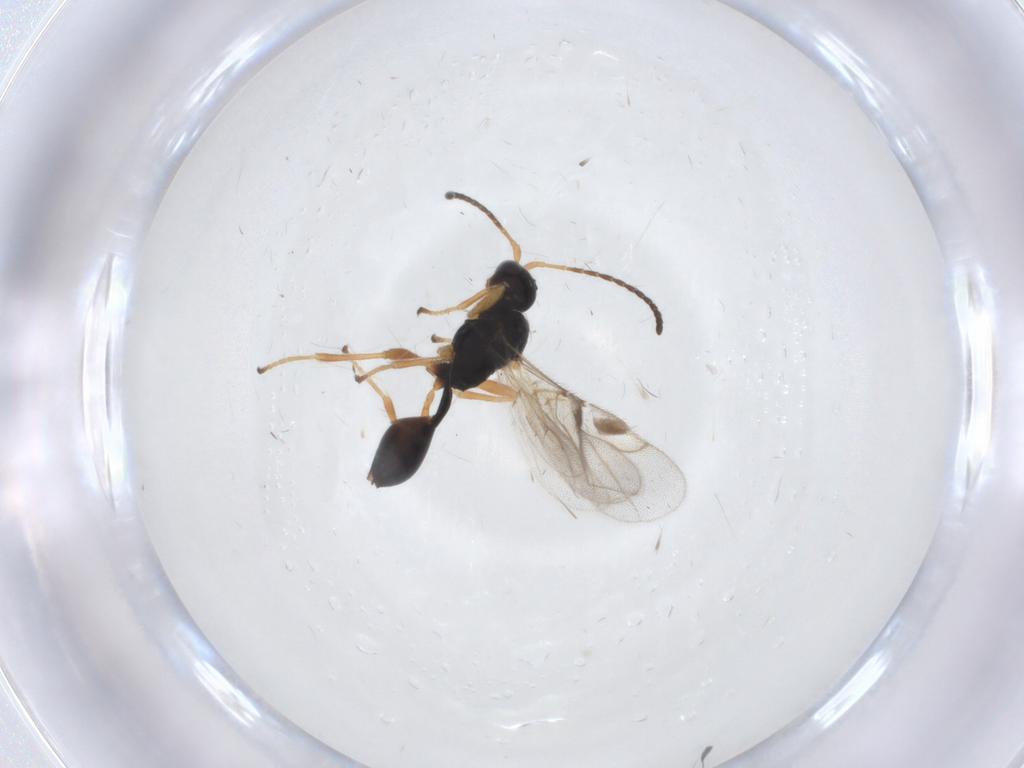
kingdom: Animalia
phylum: Arthropoda
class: Insecta
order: Hymenoptera
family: Braconidae
